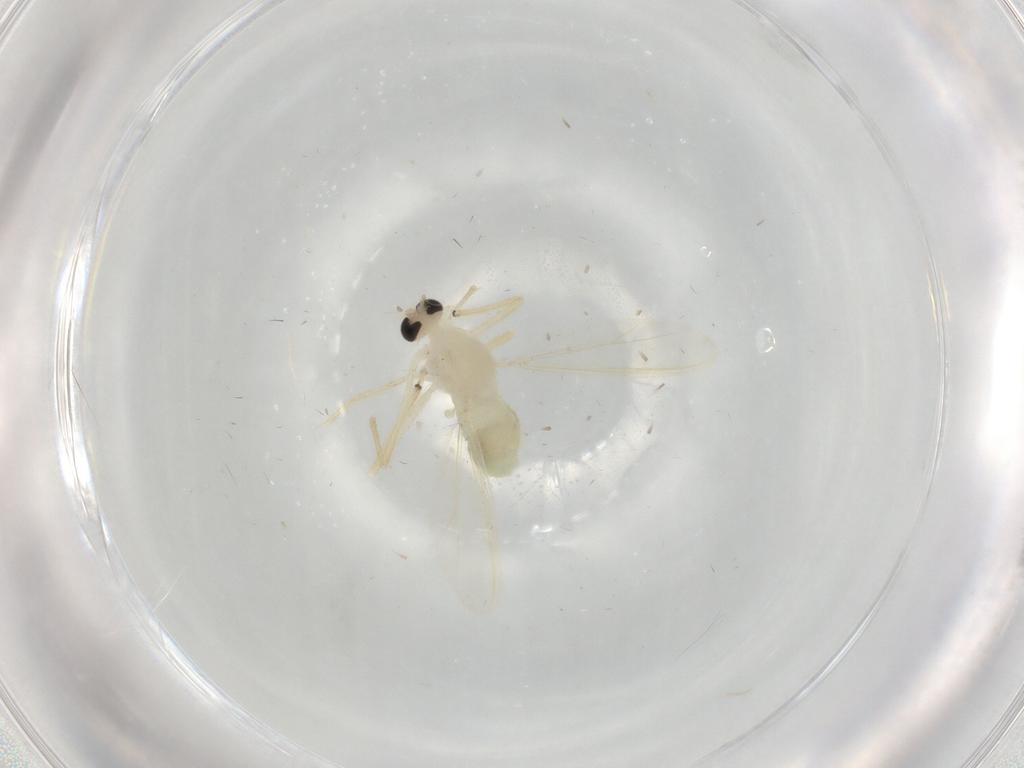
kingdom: Animalia
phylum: Arthropoda
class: Insecta
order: Diptera
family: Chironomidae
